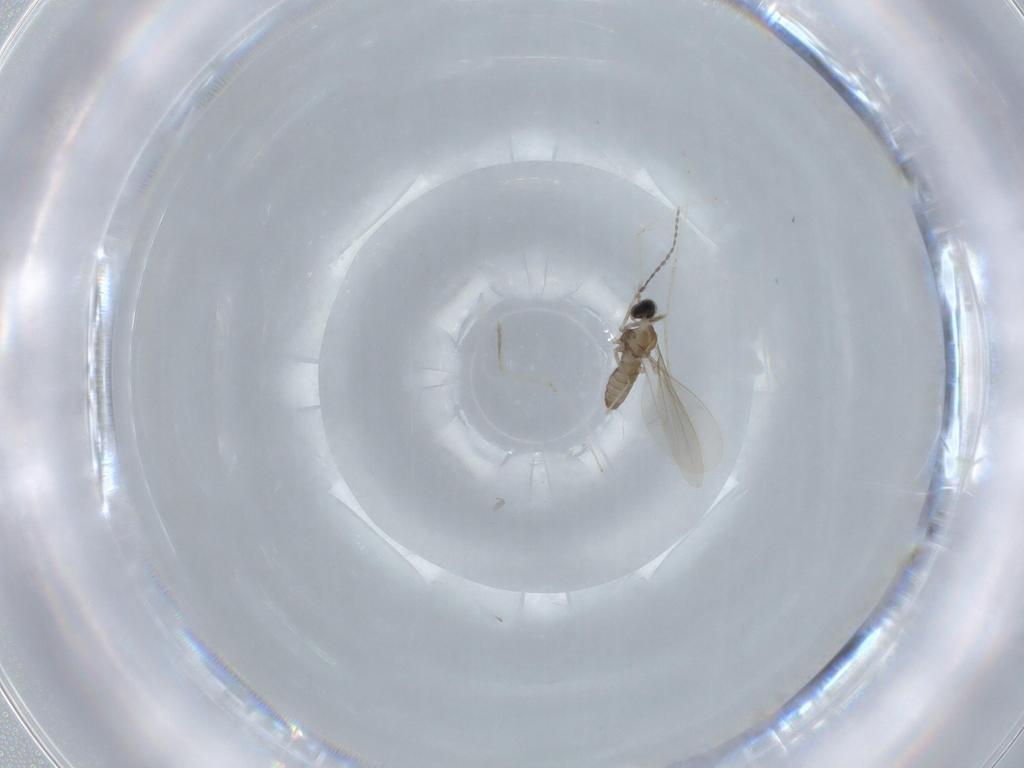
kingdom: Animalia
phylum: Arthropoda
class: Insecta
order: Diptera
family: Cecidomyiidae
